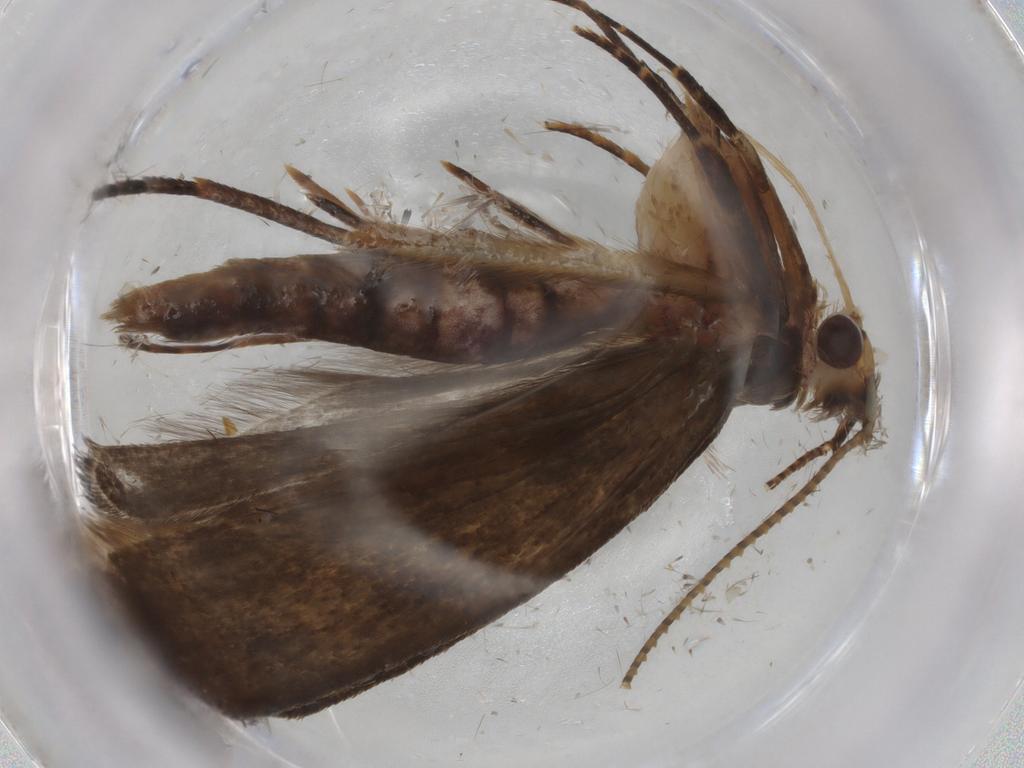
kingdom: Animalia
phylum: Arthropoda
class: Insecta
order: Lepidoptera
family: Gelechiidae
